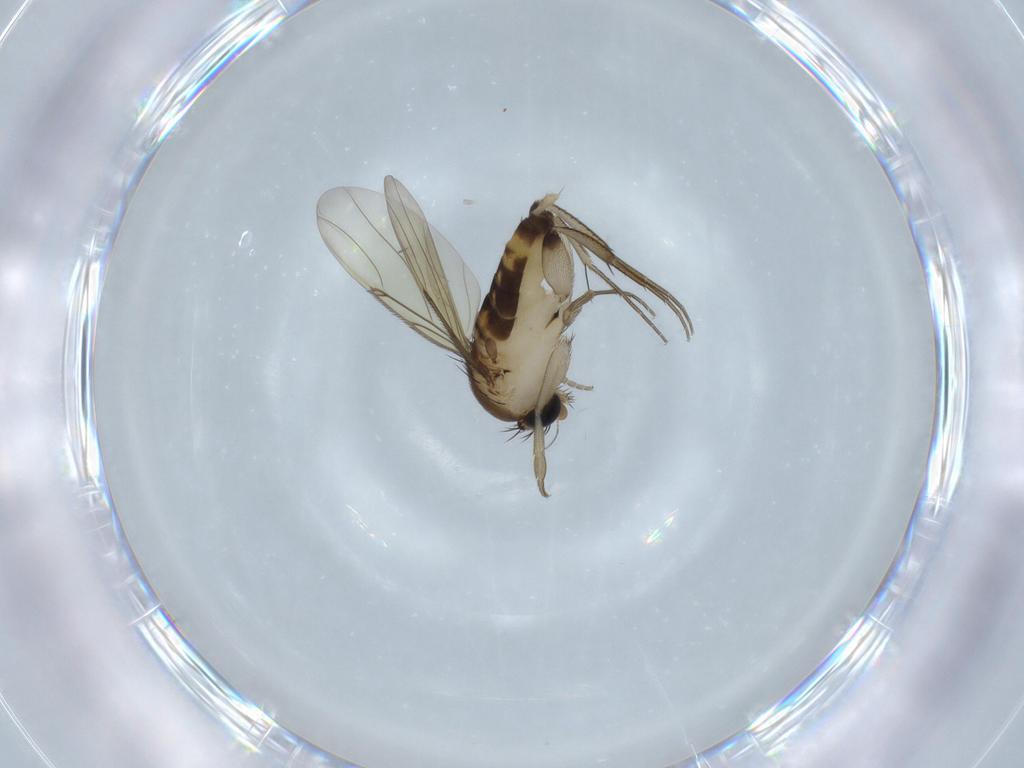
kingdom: Animalia
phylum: Arthropoda
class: Insecta
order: Diptera
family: Phoridae
